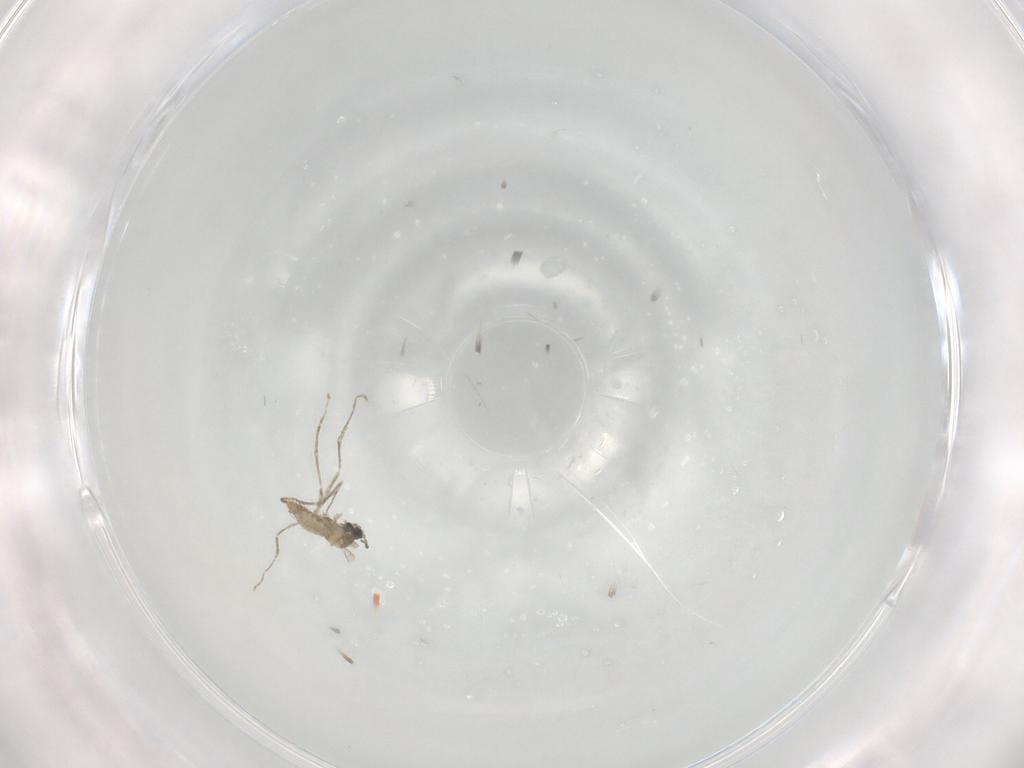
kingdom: Animalia
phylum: Arthropoda
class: Insecta
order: Diptera
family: Cecidomyiidae
